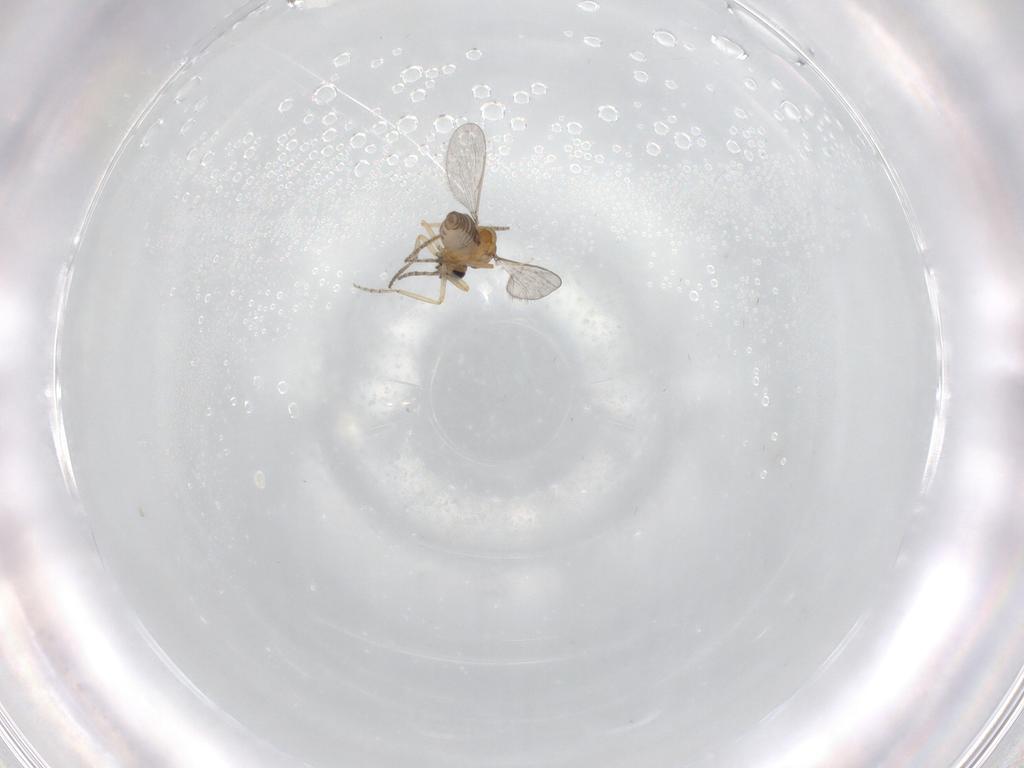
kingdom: Animalia
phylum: Arthropoda
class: Insecta
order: Diptera
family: Ceratopogonidae
